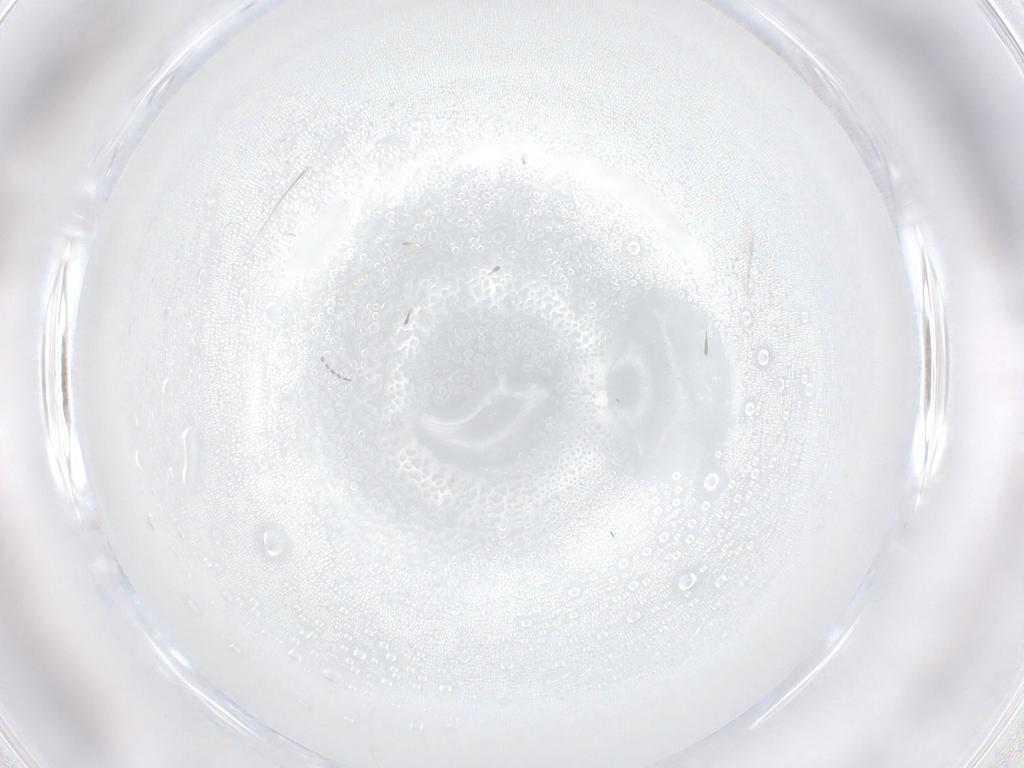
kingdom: Animalia
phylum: Arthropoda
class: Insecta
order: Diptera
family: Cecidomyiidae
